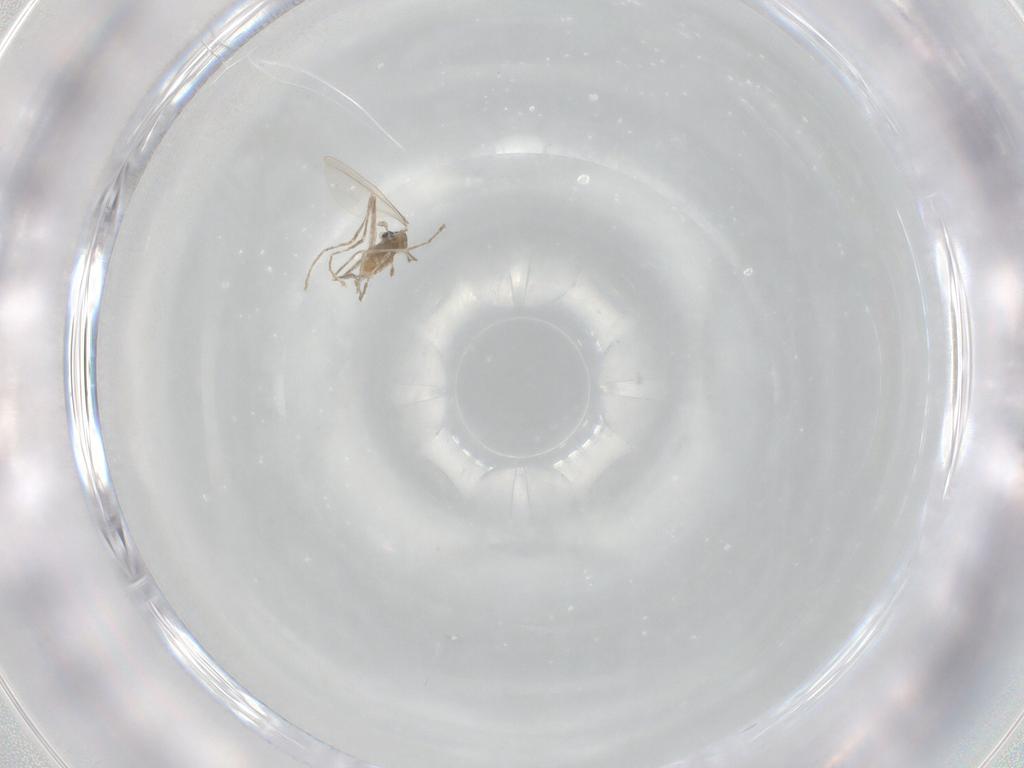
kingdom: Animalia
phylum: Arthropoda
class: Insecta
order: Diptera
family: Cecidomyiidae
